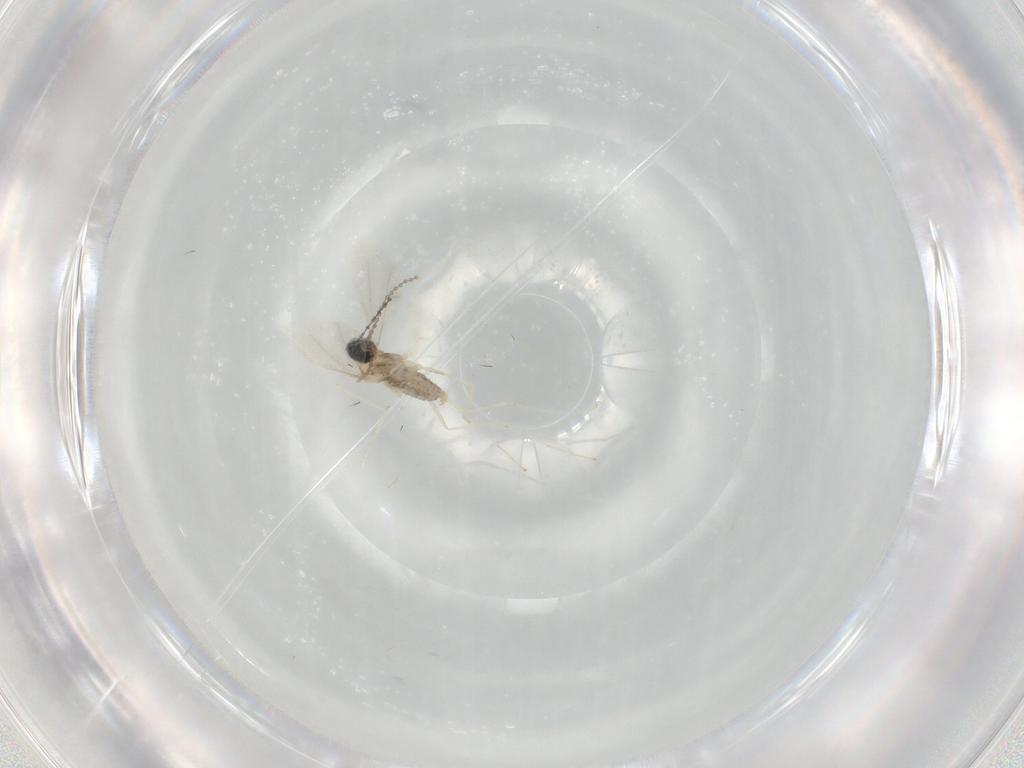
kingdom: Animalia
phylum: Arthropoda
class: Insecta
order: Diptera
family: Cecidomyiidae
